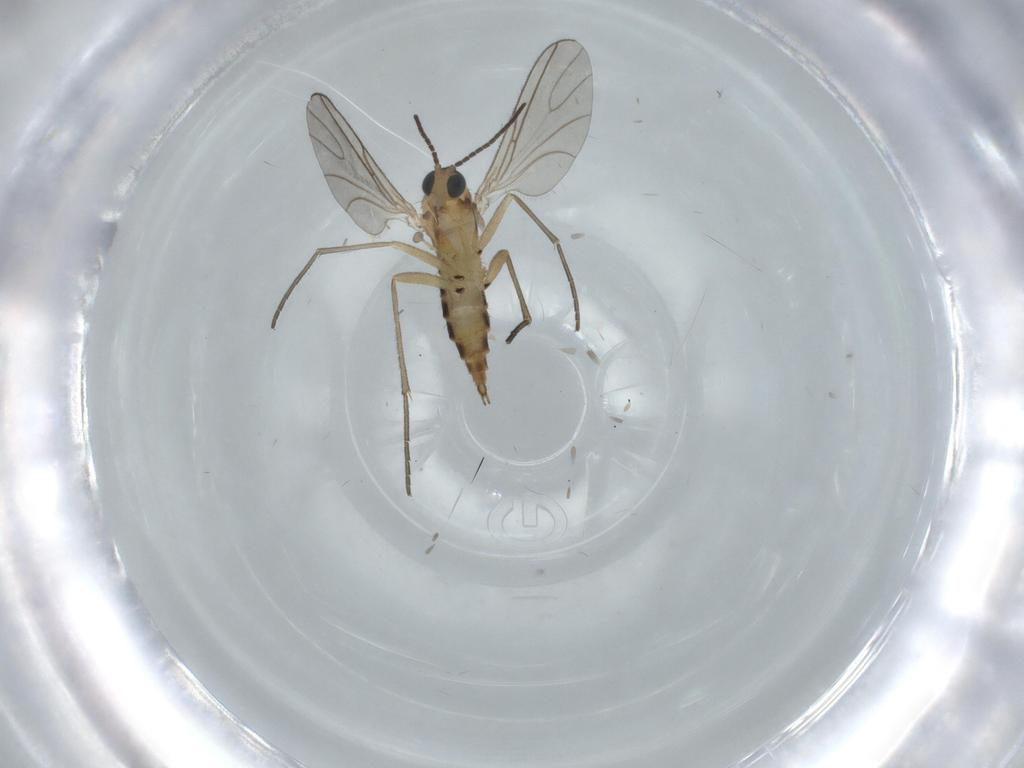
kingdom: Animalia
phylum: Arthropoda
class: Insecta
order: Diptera
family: Sciaridae
